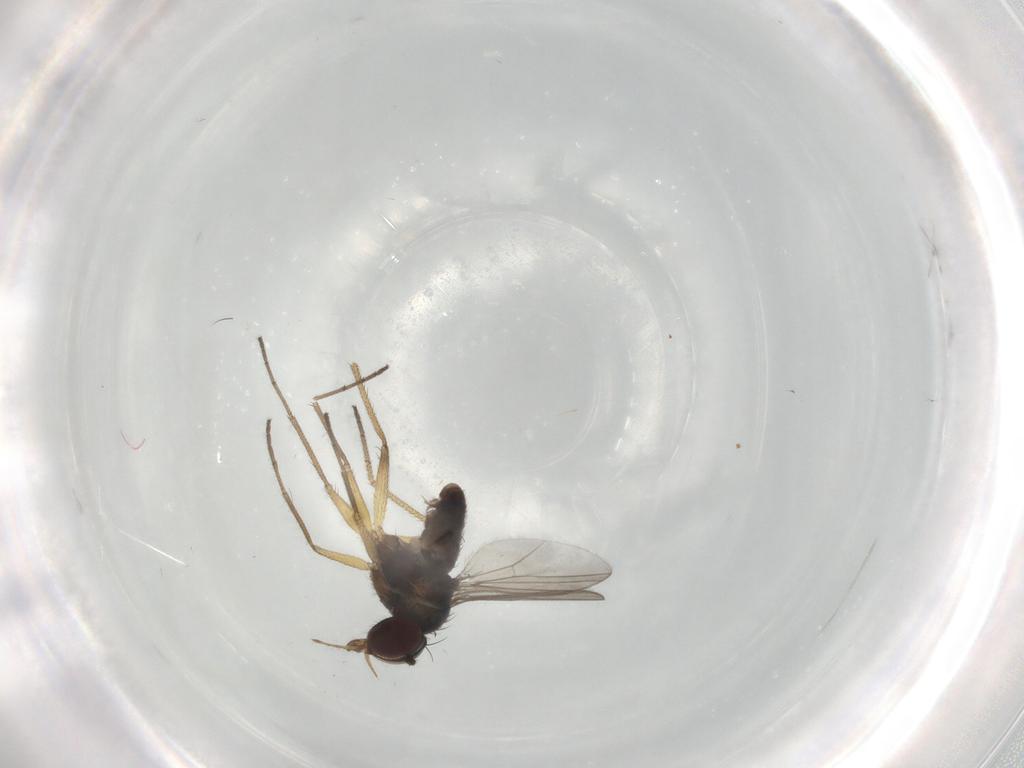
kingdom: Animalia
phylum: Arthropoda
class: Insecta
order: Diptera
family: Dolichopodidae
